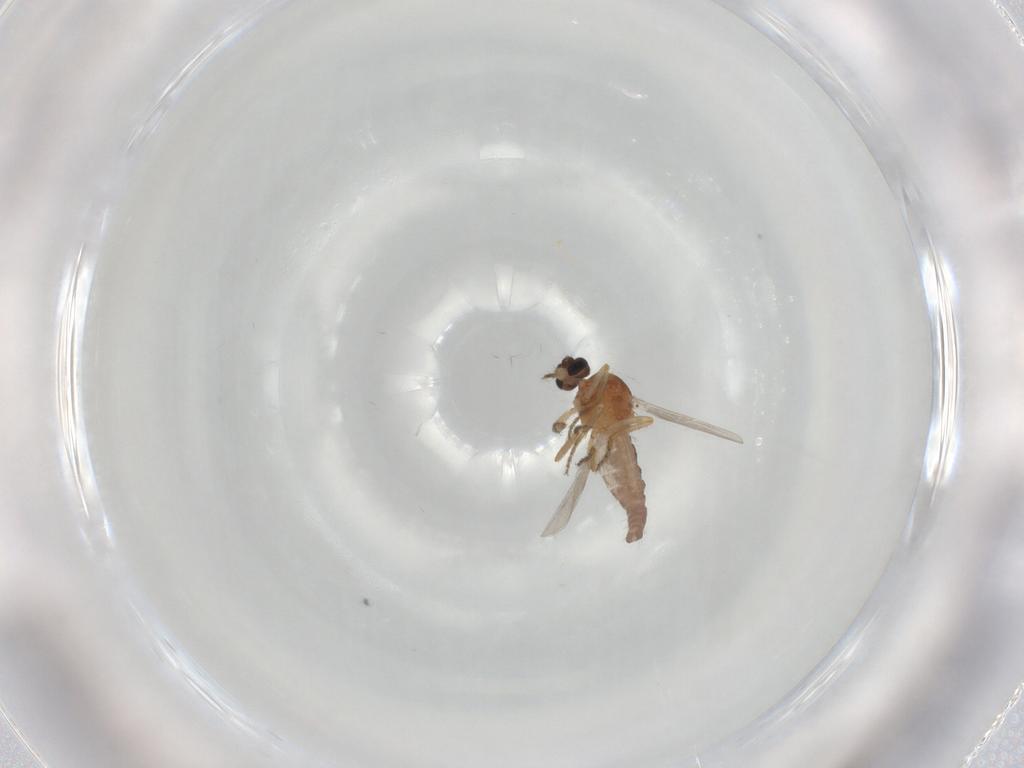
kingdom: Animalia
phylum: Arthropoda
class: Insecta
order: Diptera
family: Ceratopogonidae
